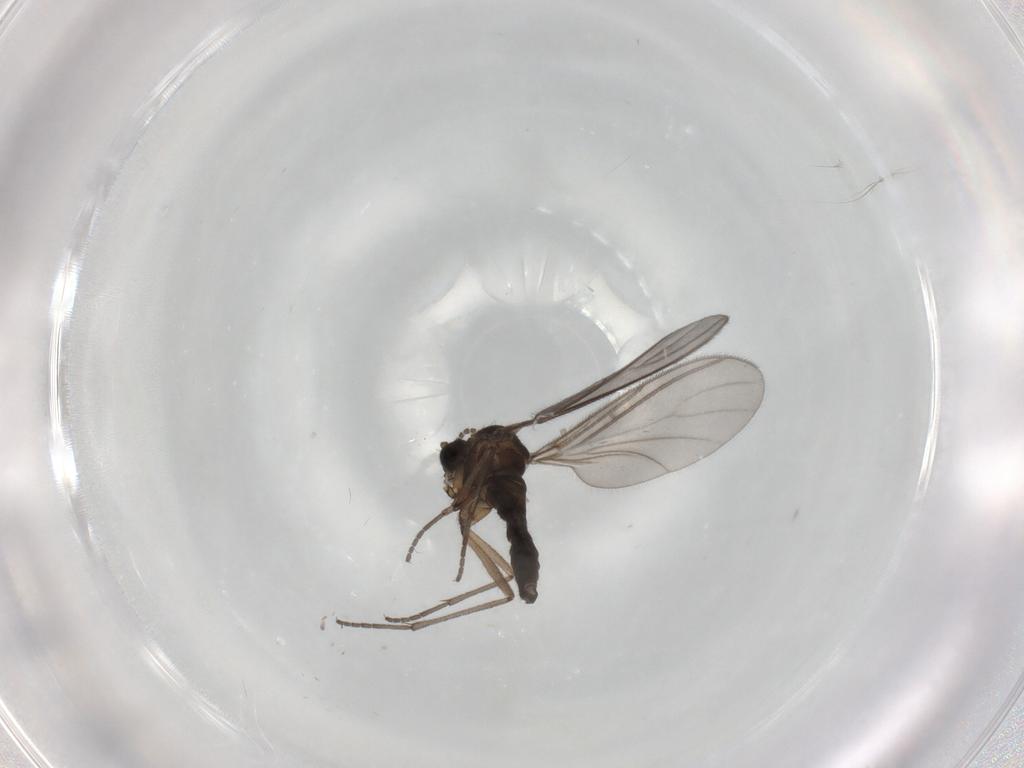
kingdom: Animalia
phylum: Arthropoda
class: Insecta
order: Diptera
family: Sciaridae
